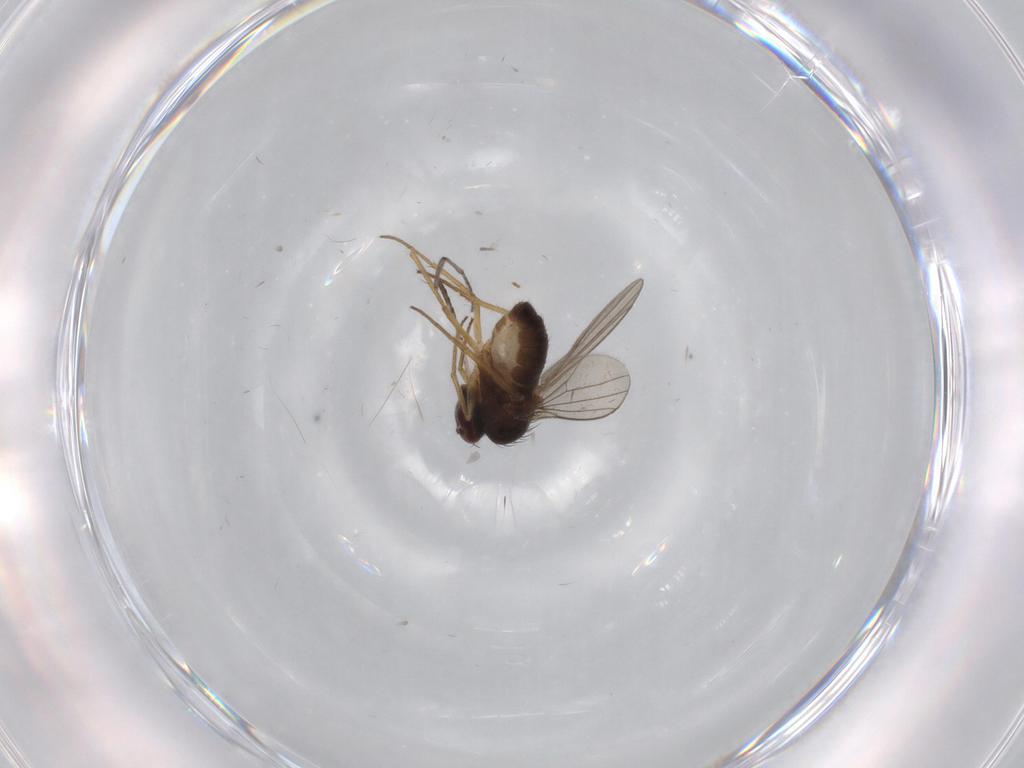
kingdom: Animalia
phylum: Arthropoda
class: Insecta
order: Diptera
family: Dolichopodidae
